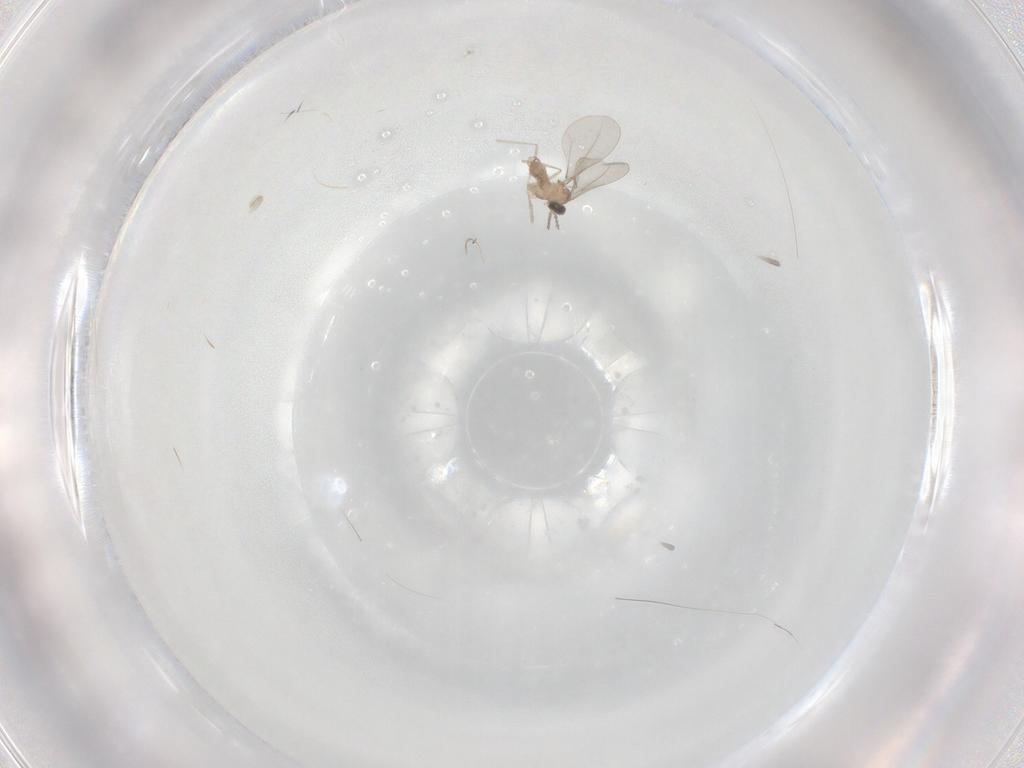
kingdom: Animalia
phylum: Arthropoda
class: Insecta
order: Diptera
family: Cecidomyiidae
